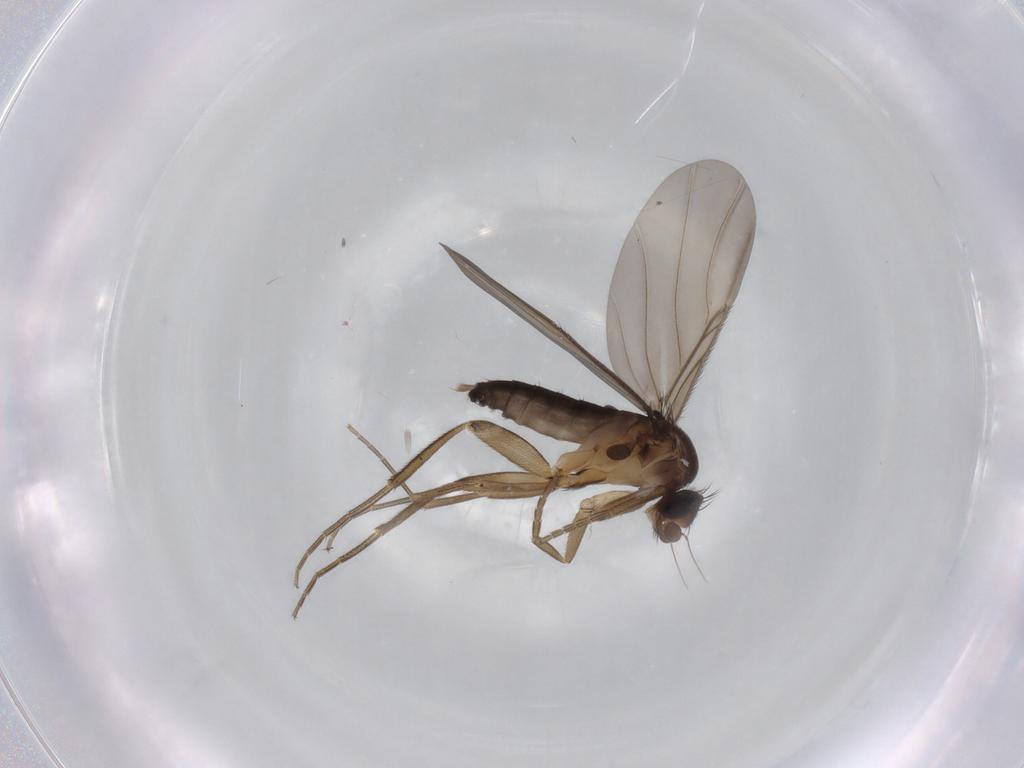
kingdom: Animalia
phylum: Arthropoda
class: Insecta
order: Diptera
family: Phoridae
